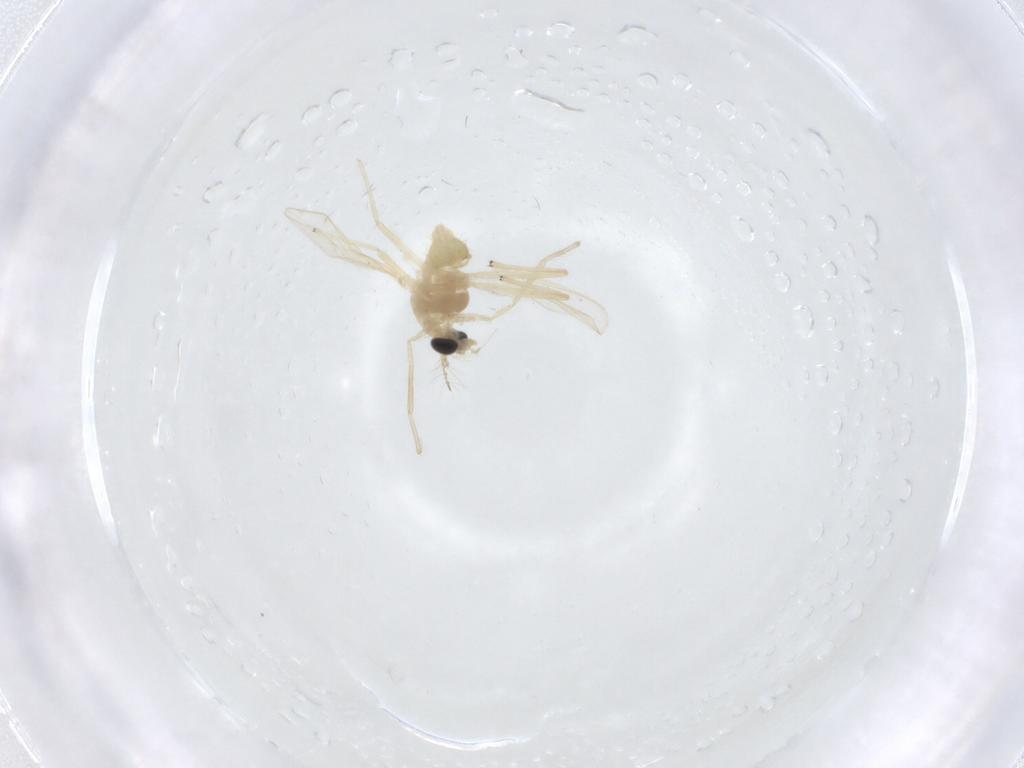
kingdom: Animalia
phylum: Arthropoda
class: Insecta
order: Diptera
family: Chironomidae
